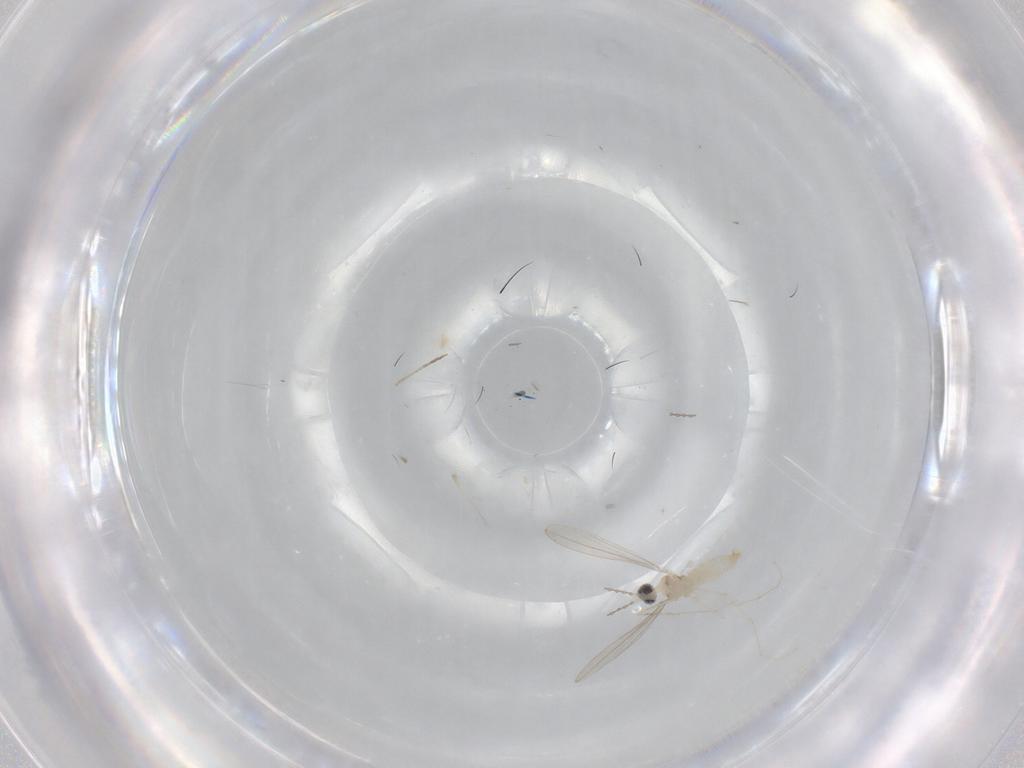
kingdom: Animalia
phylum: Arthropoda
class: Insecta
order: Diptera
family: Cecidomyiidae
